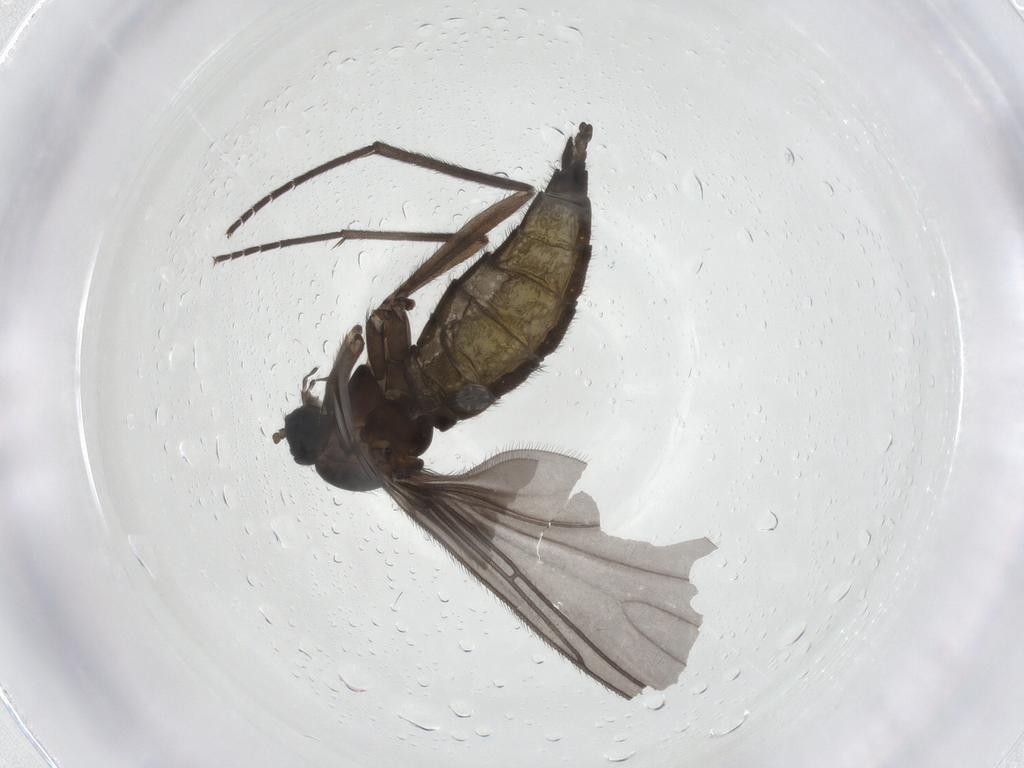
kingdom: Animalia
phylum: Arthropoda
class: Insecta
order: Diptera
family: Sciaridae
